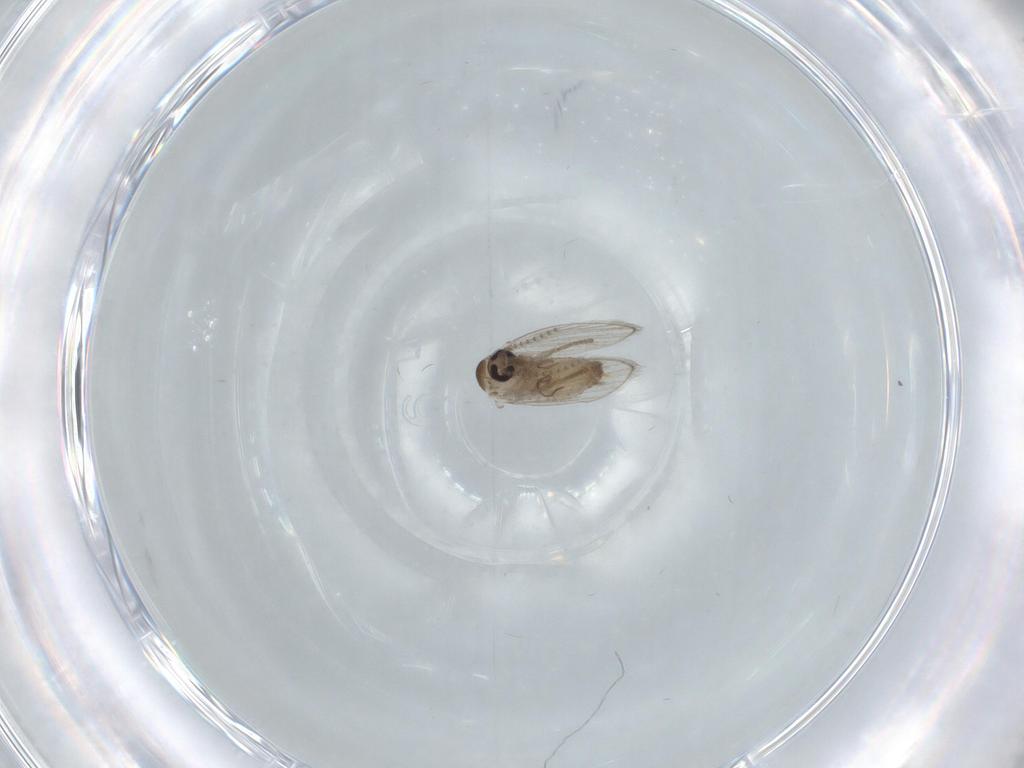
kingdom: Animalia
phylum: Arthropoda
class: Insecta
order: Diptera
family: Psychodidae
